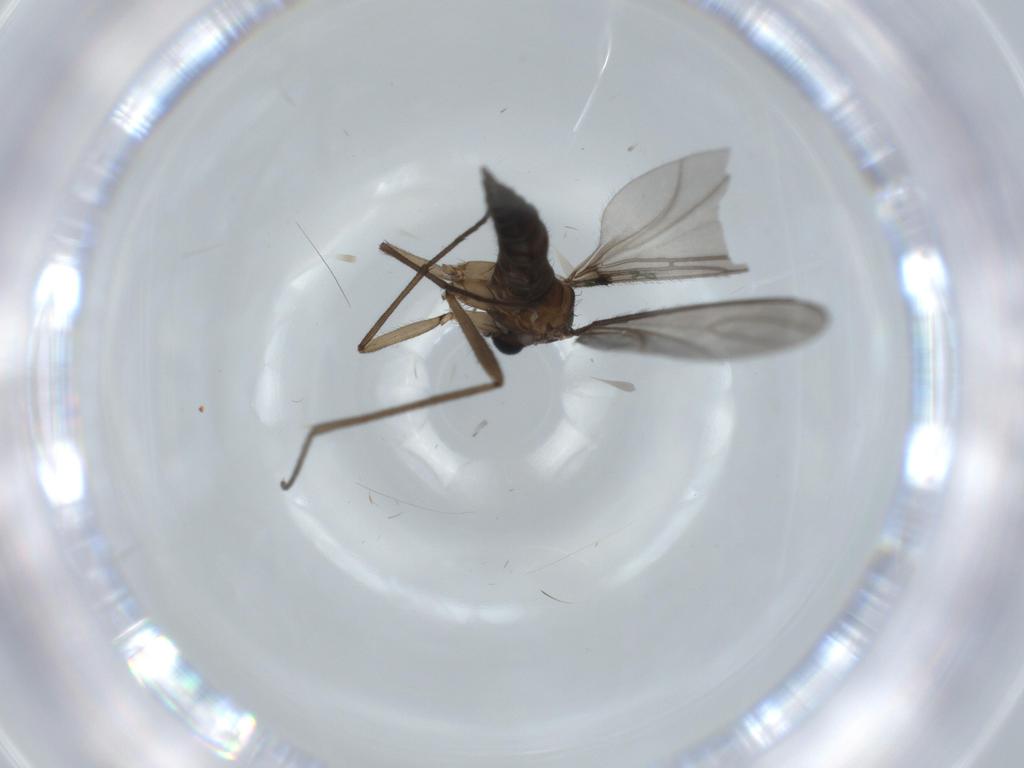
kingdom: Animalia
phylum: Arthropoda
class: Insecta
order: Diptera
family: Sciaridae
